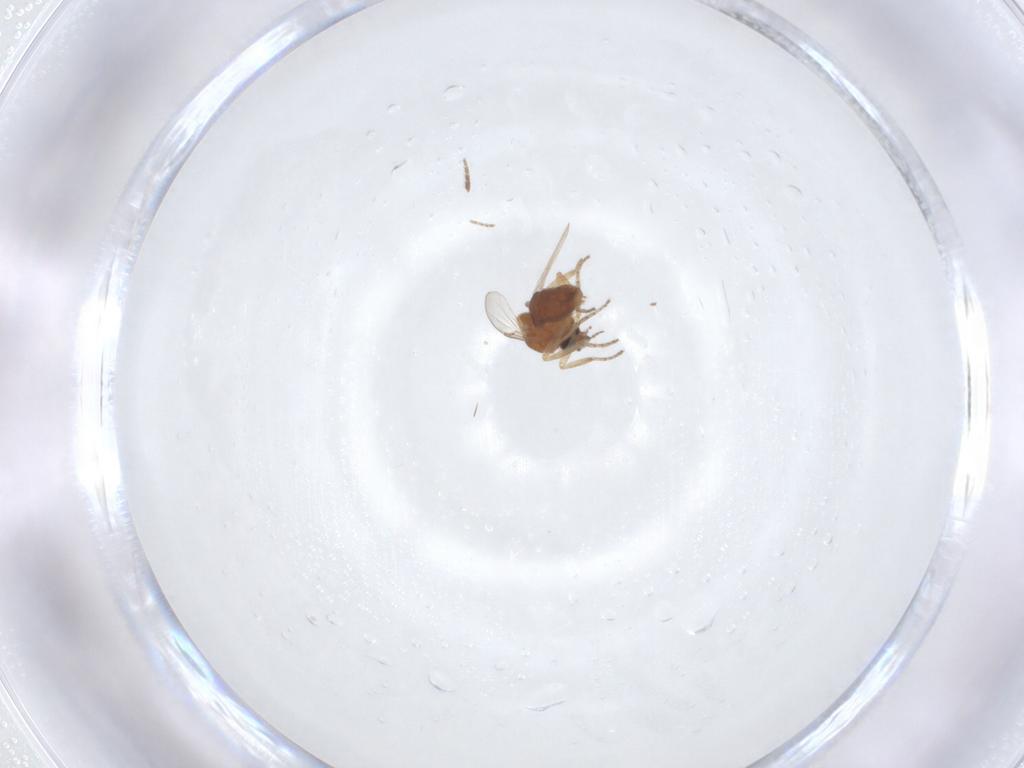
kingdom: Animalia
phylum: Arthropoda
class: Insecta
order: Diptera
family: Ceratopogonidae
